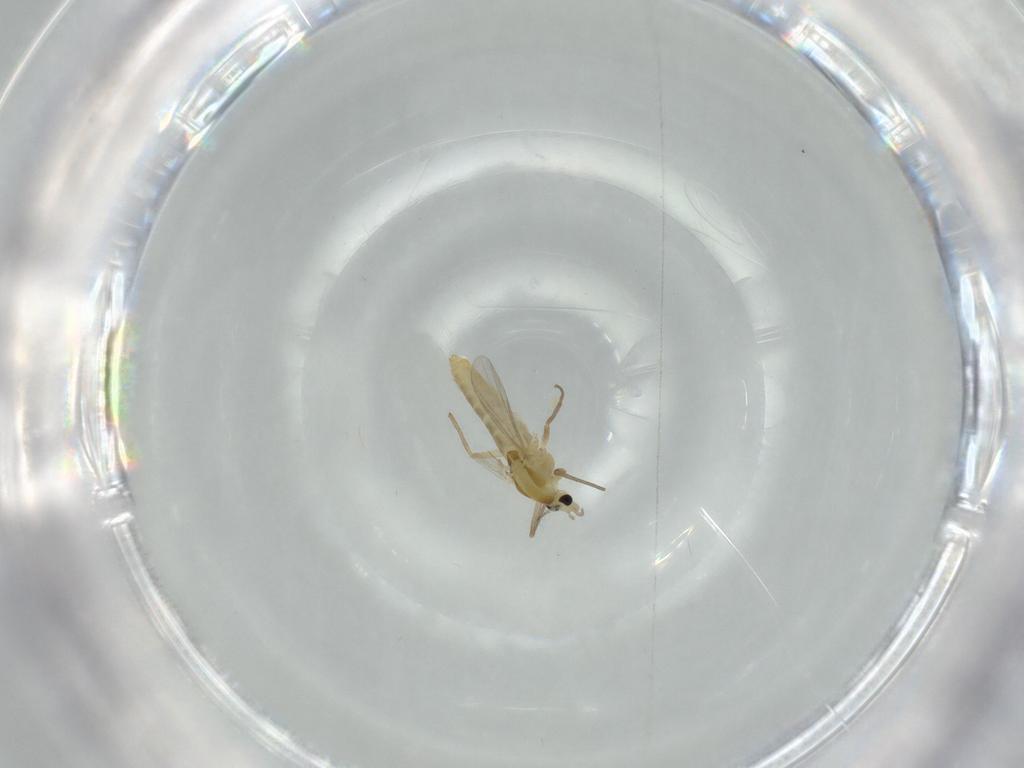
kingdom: Animalia
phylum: Arthropoda
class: Insecta
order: Diptera
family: Chironomidae
